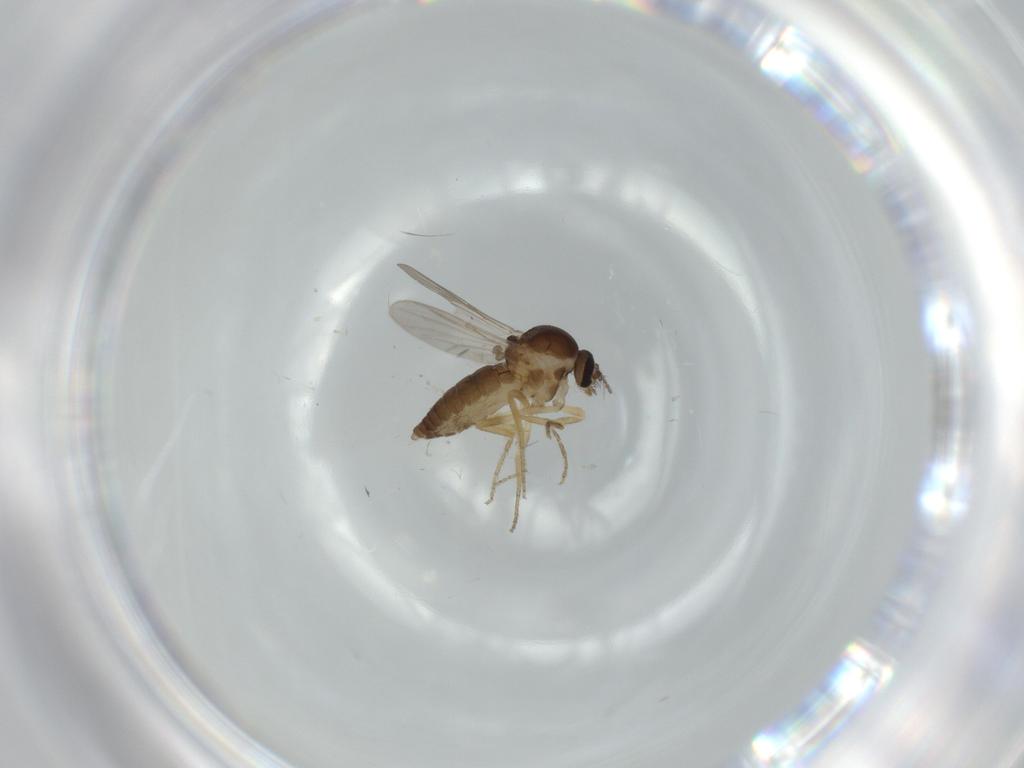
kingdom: Animalia
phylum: Arthropoda
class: Insecta
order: Diptera
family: Ceratopogonidae
